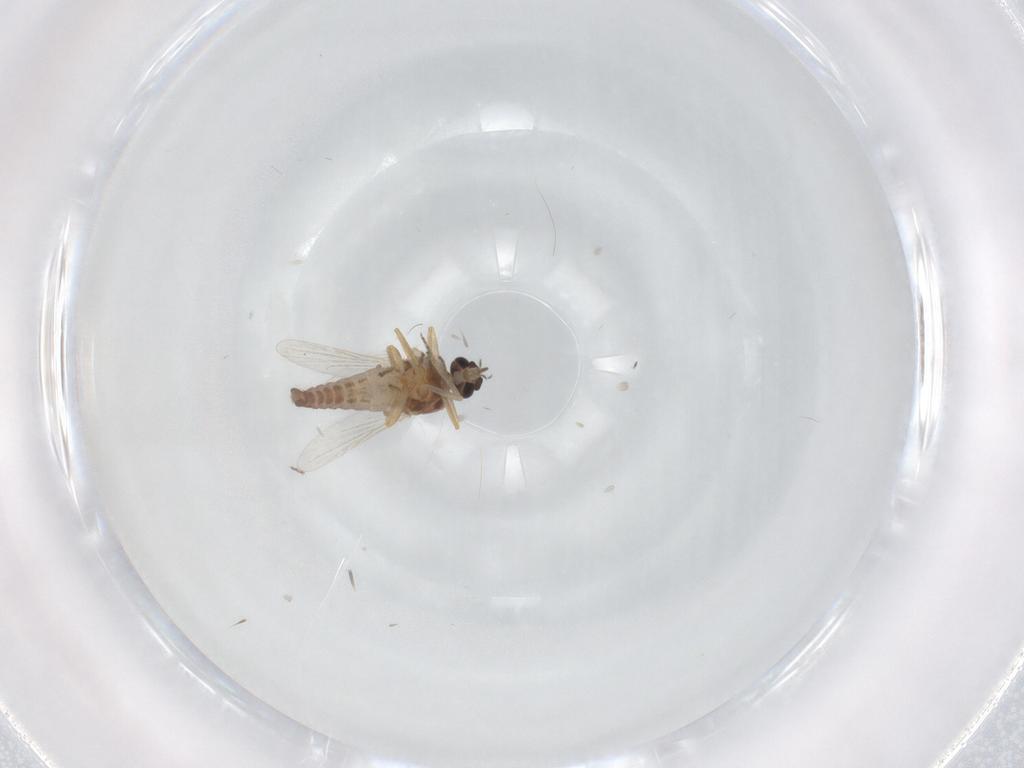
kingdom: Animalia
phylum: Arthropoda
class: Insecta
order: Diptera
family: Ceratopogonidae
